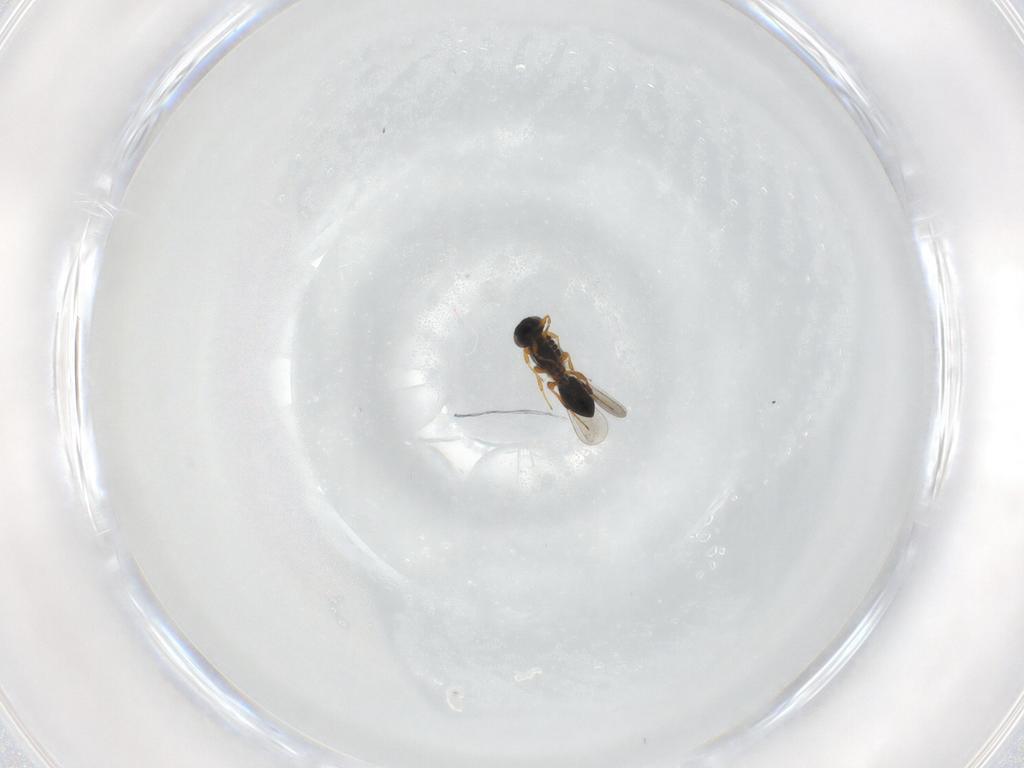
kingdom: Animalia
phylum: Arthropoda
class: Insecta
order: Hymenoptera
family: Platygastridae
